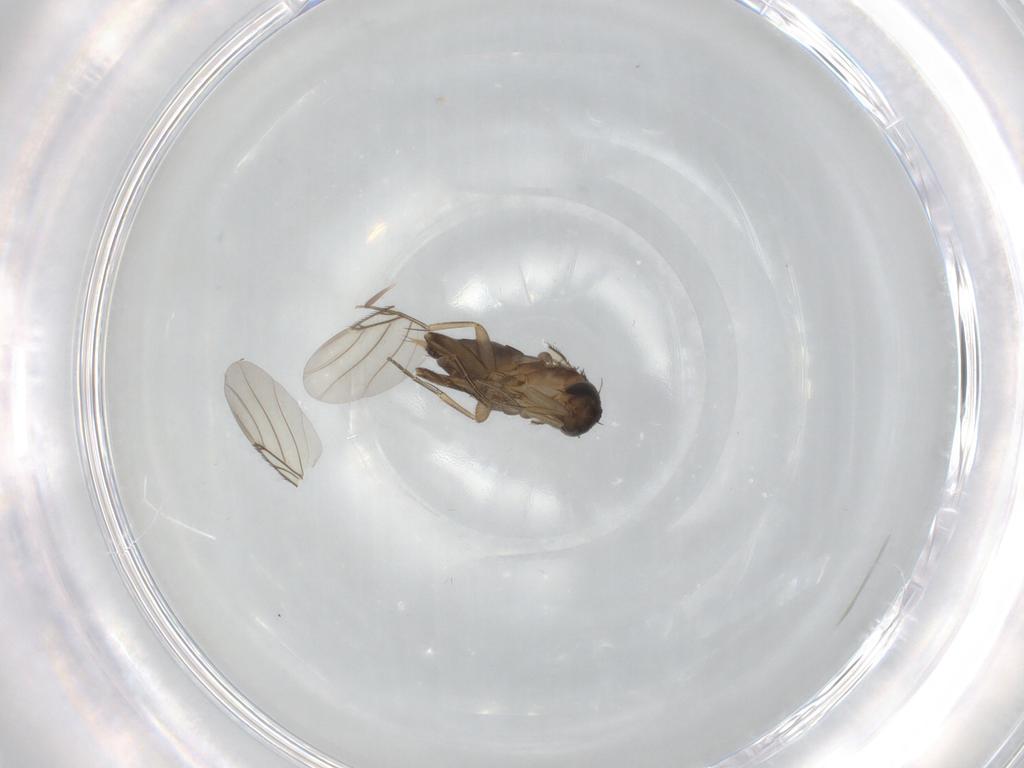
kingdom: Animalia
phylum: Arthropoda
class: Insecta
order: Diptera
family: Phoridae
